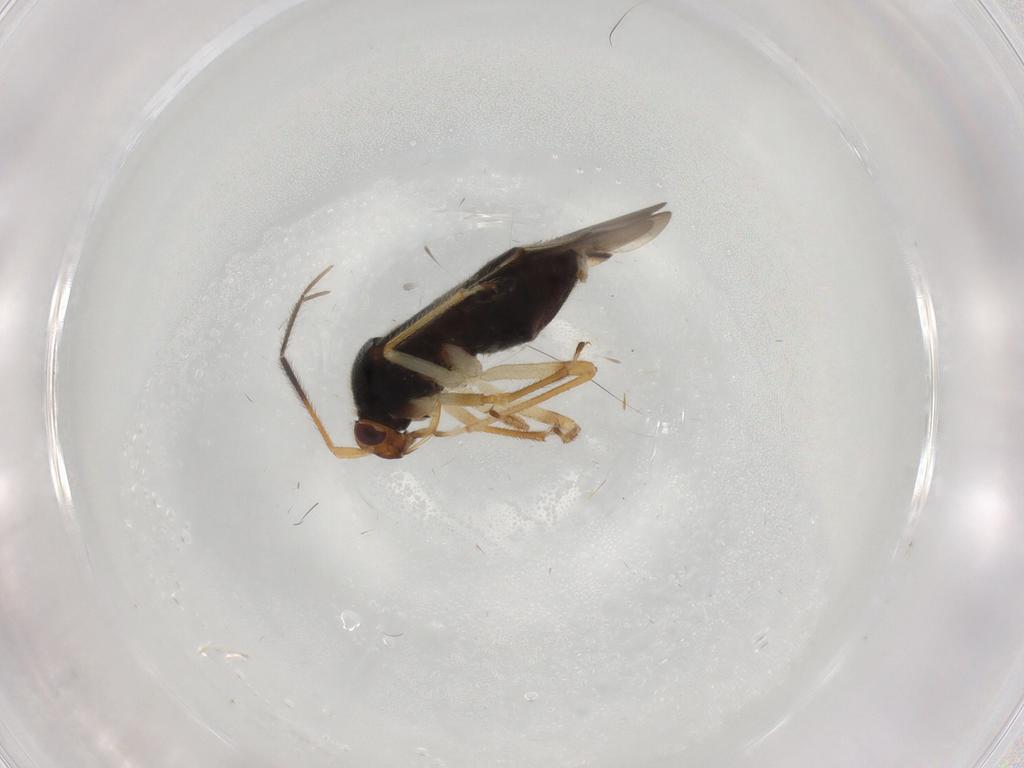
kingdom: Animalia
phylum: Arthropoda
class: Insecta
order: Hemiptera
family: Miridae
